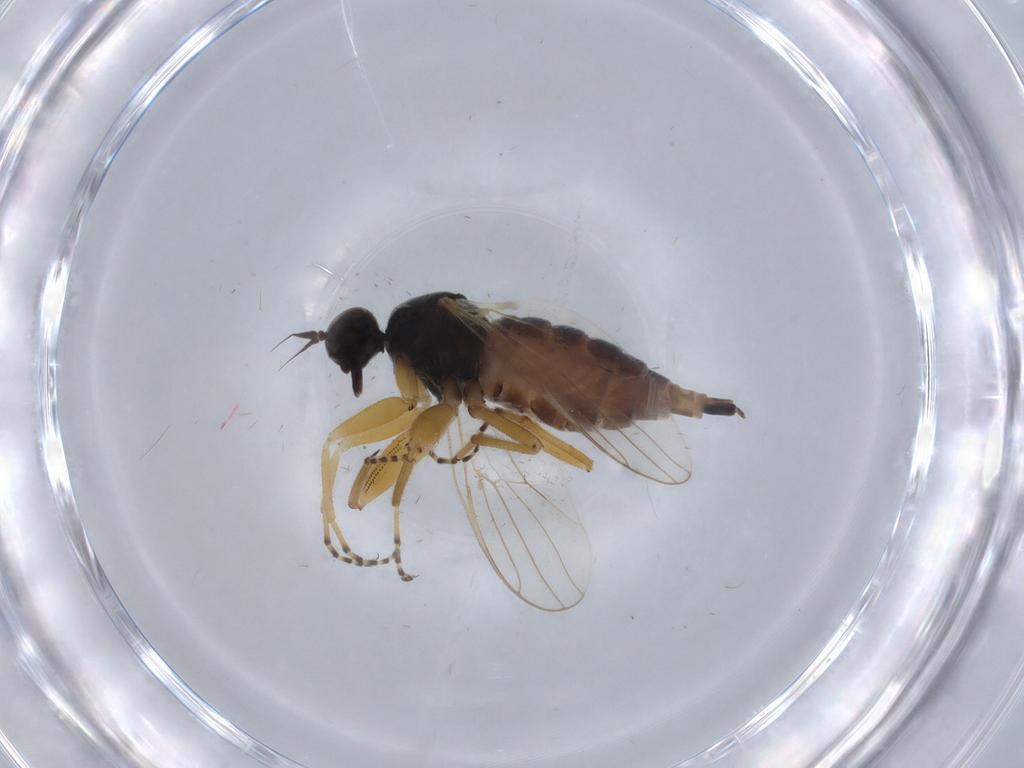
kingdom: Animalia
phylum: Arthropoda
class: Insecta
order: Diptera
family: Hybotidae
